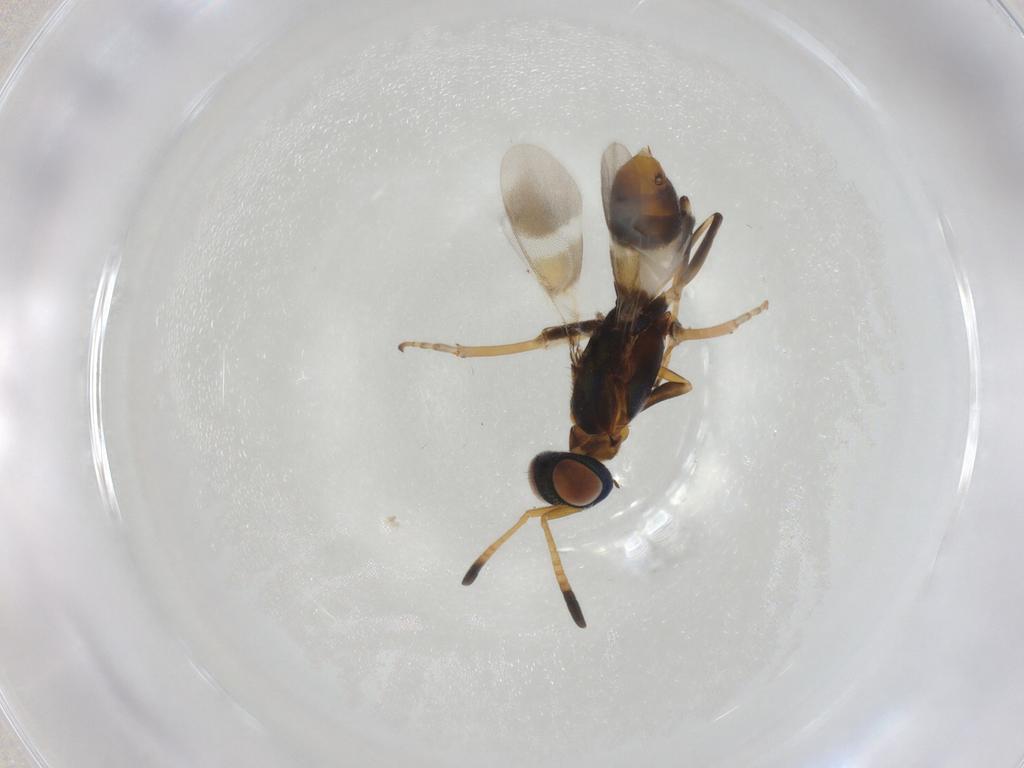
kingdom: Animalia
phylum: Arthropoda
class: Insecta
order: Hymenoptera
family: Eupelmidae
